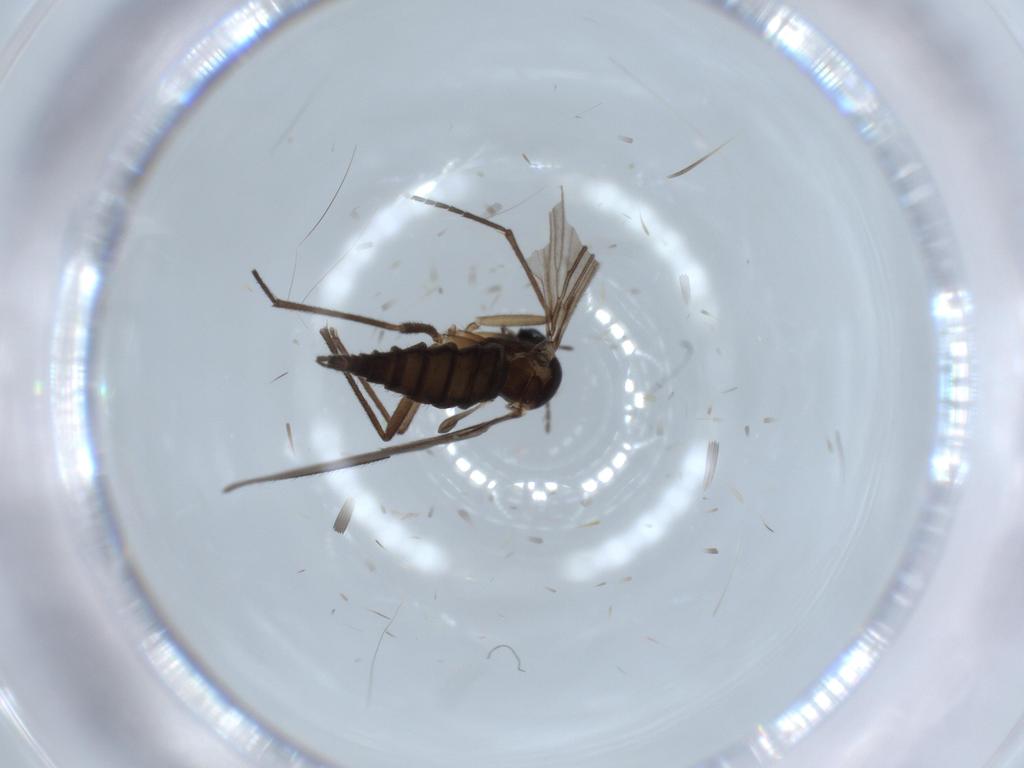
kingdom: Animalia
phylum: Arthropoda
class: Insecta
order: Diptera
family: Sciaridae
